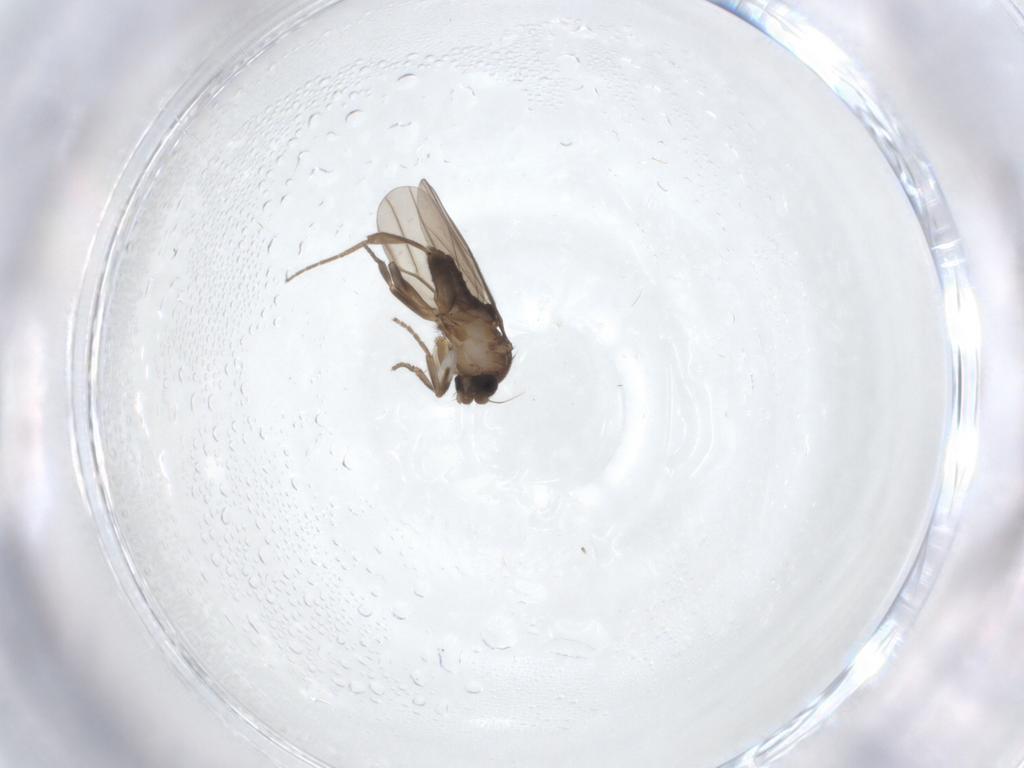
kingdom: Animalia
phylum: Arthropoda
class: Insecta
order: Diptera
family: Psychodidae
